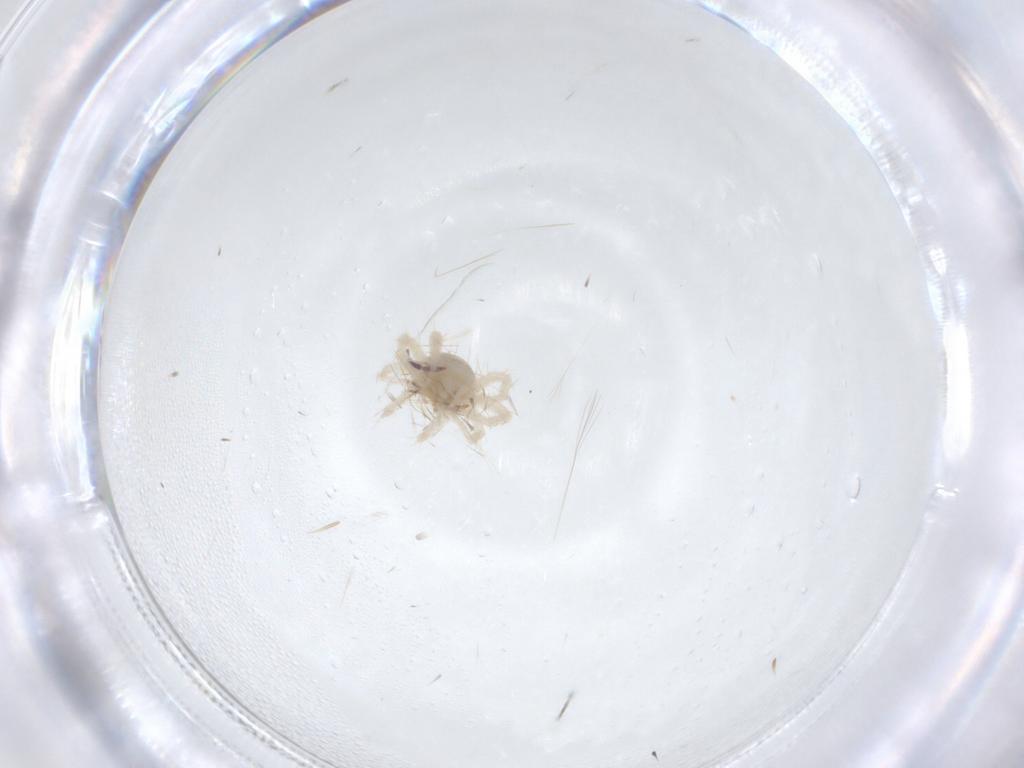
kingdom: Animalia
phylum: Arthropoda
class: Arachnida
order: Trombidiformes
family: Anystidae
